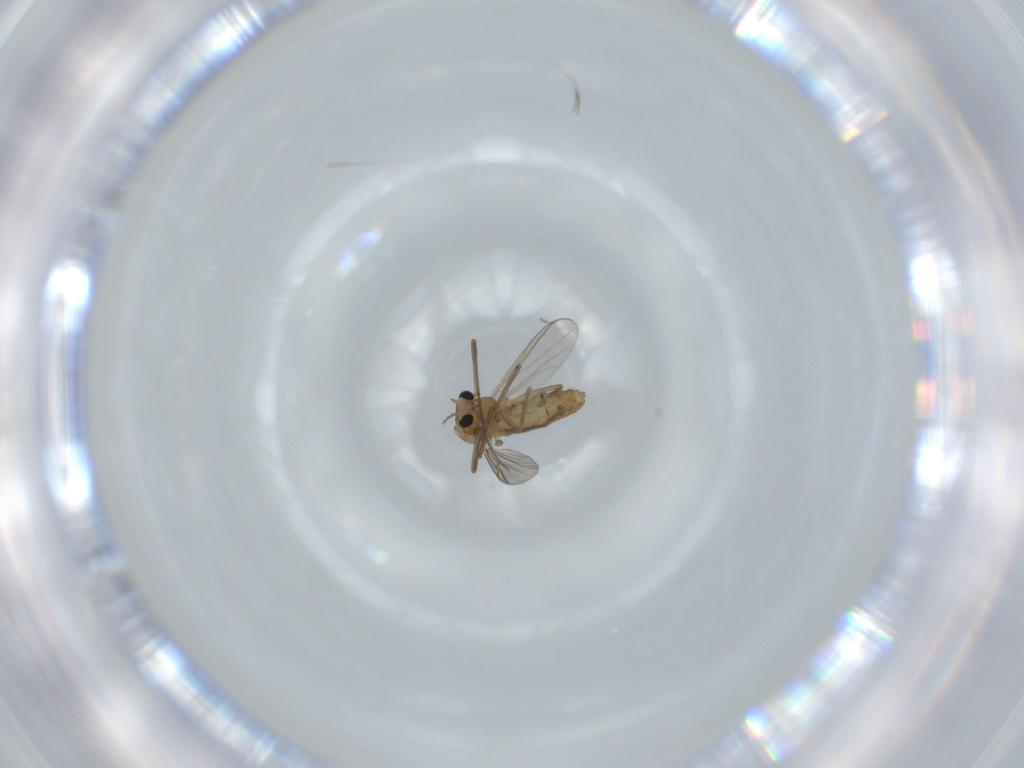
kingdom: Animalia
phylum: Arthropoda
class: Insecta
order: Diptera
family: Chironomidae
